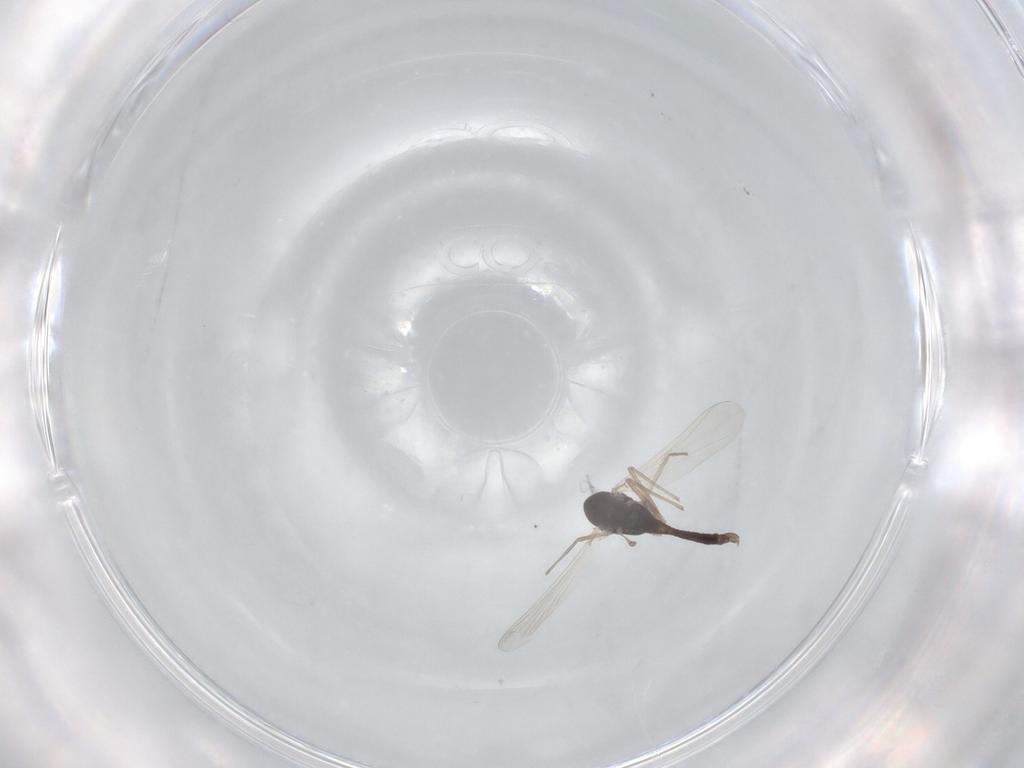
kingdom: Animalia
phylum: Arthropoda
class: Insecta
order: Diptera
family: Chironomidae
